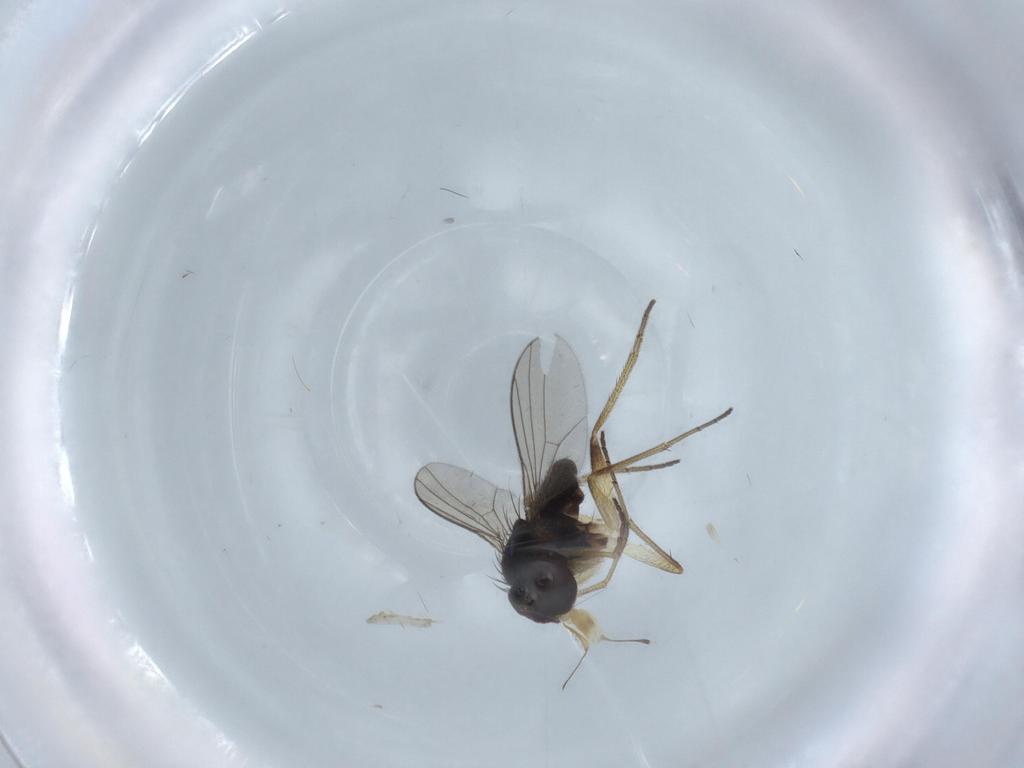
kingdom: Animalia
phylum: Arthropoda
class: Insecta
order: Diptera
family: Dolichopodidae
